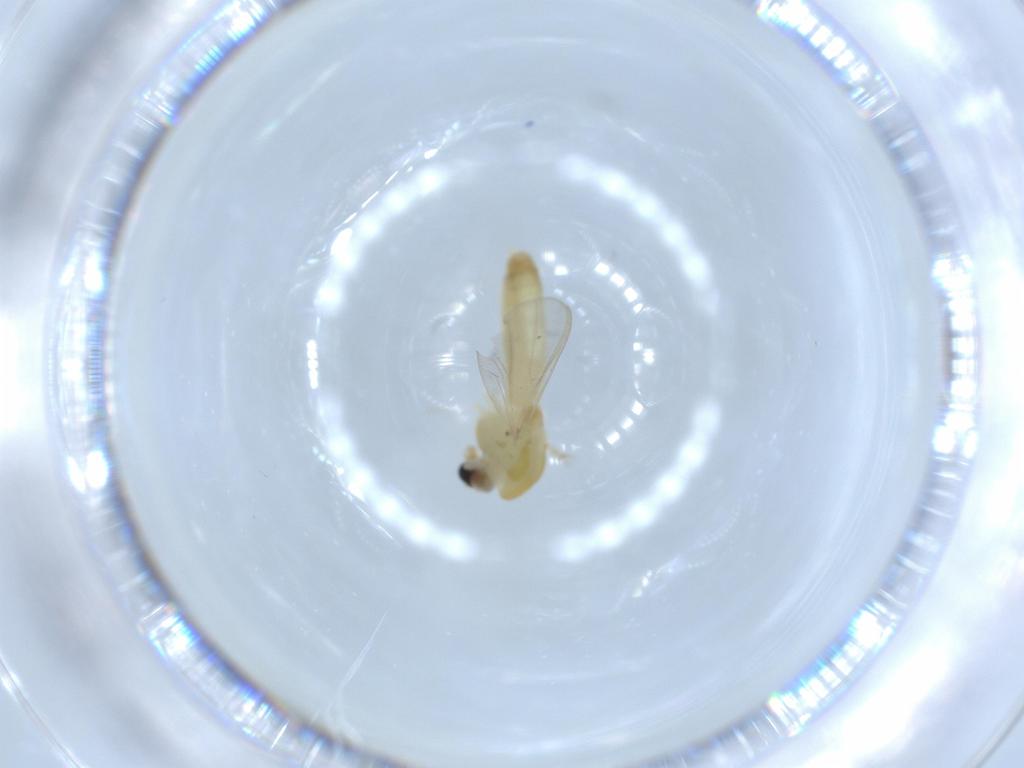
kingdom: Animalia
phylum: Arthropoda
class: Insecta
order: Diptera
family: Chironomidae
